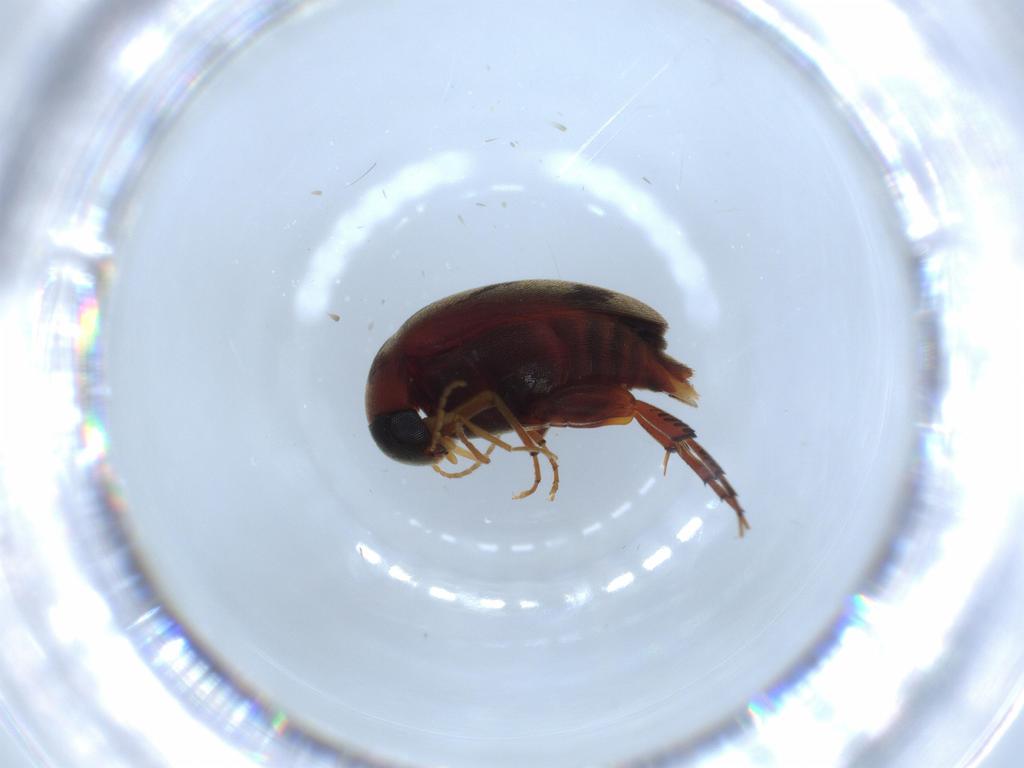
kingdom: Animalia
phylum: Arthropoda
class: Insecta
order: Coleoptera
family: Mordellidae
